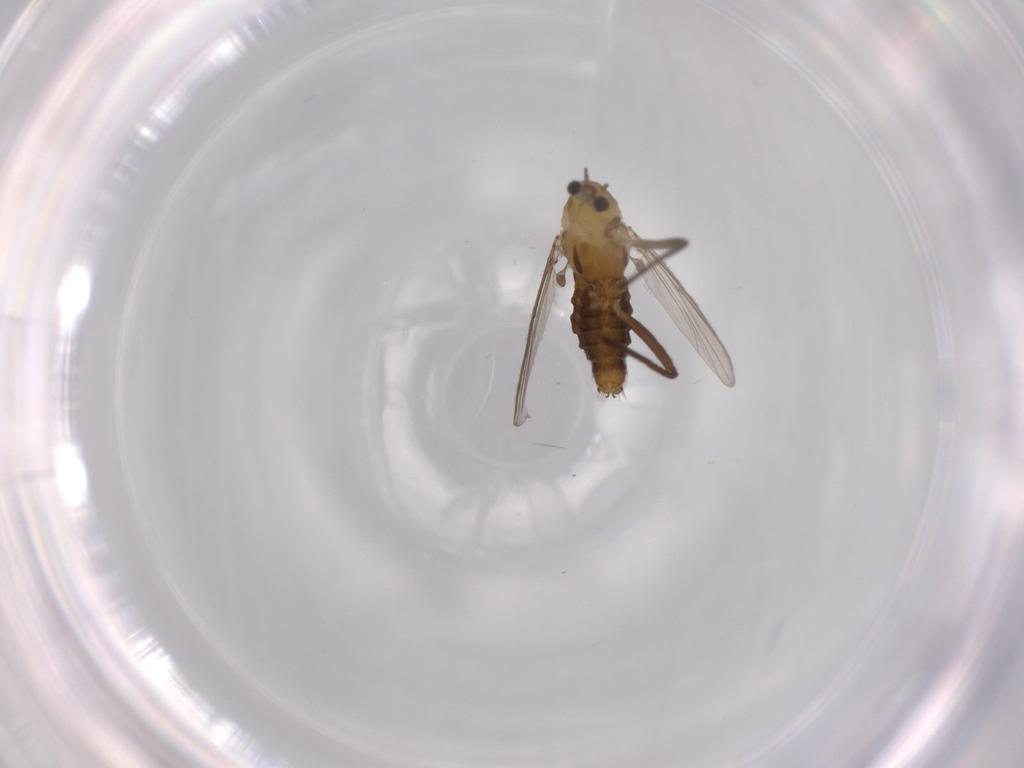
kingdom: Animalia
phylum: Arthropoda
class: Insecta
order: Diptera
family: Chironomidae
